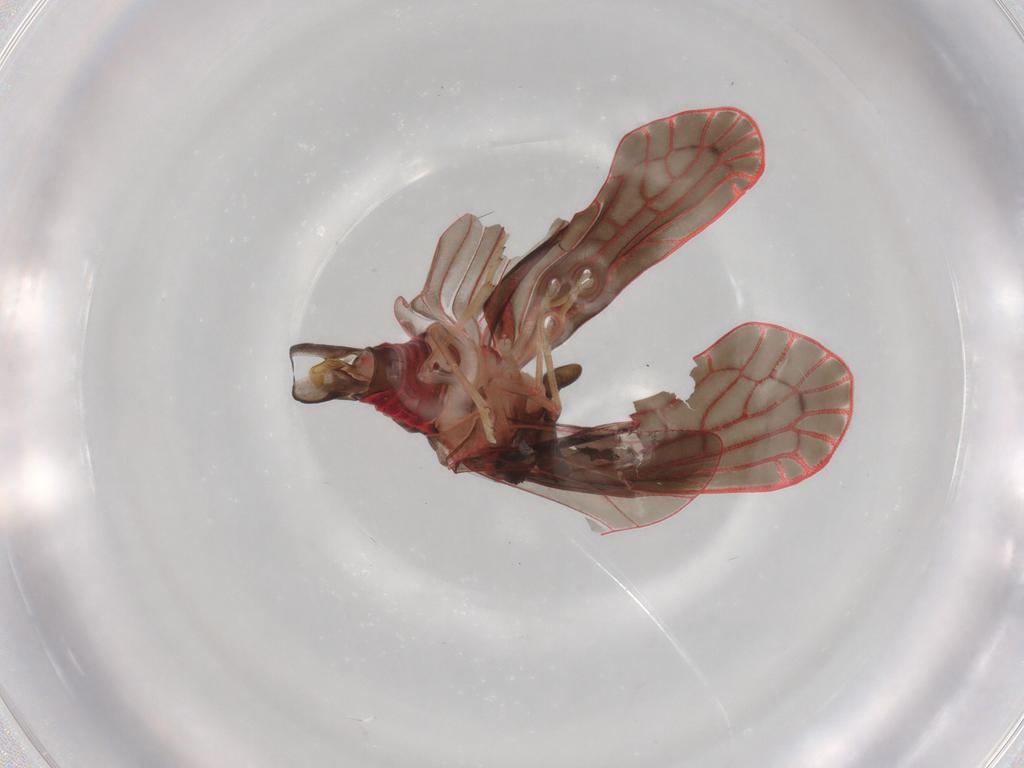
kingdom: Animalia
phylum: Arthropoda
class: Insecta
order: Hemiptera
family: Derbidae
